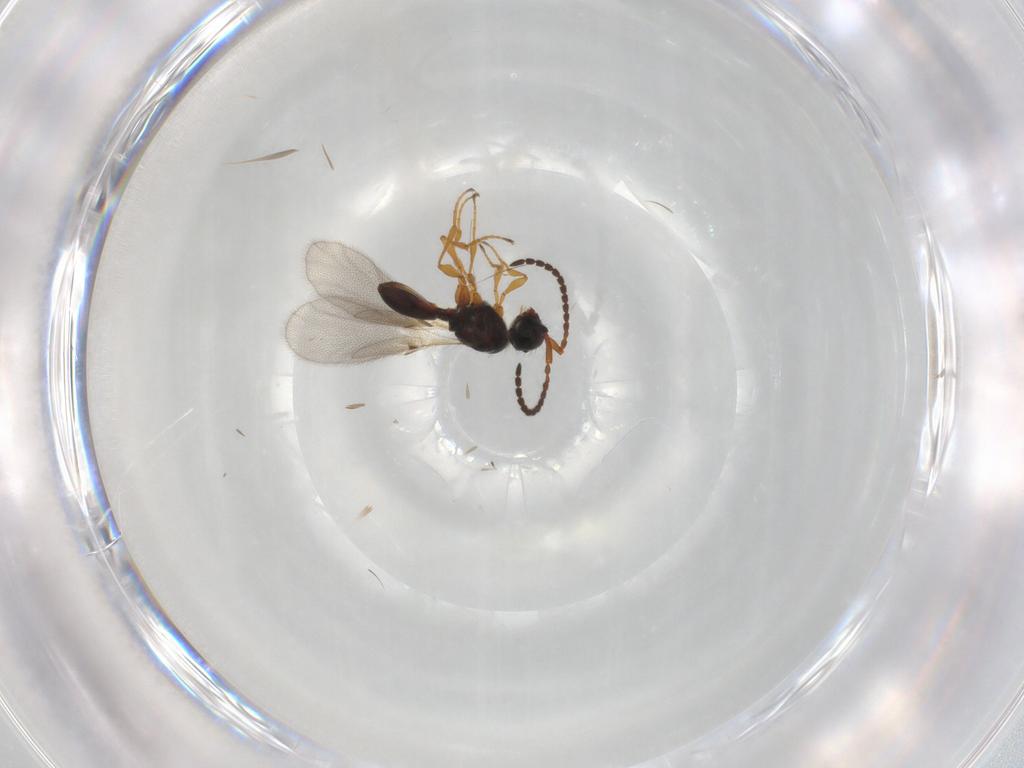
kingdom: Animalia
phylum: Arthropoda
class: Insecta
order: Hymenoptera
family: Diapriidae
